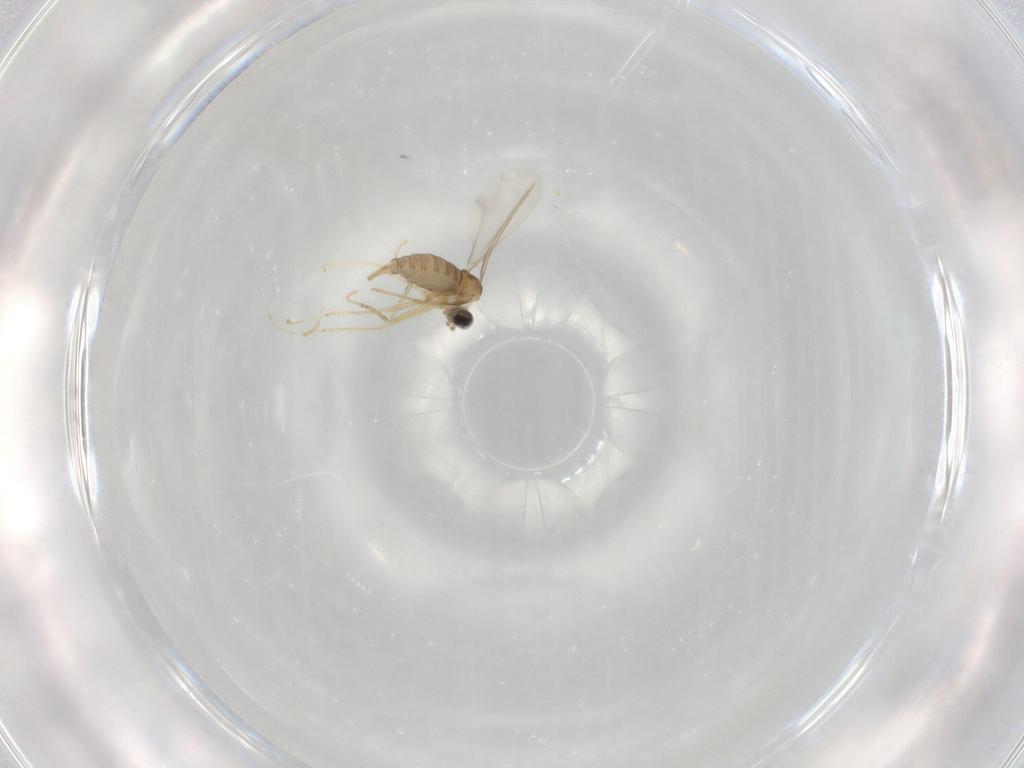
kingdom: Animalia
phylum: Arthropoda
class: Insecta
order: Diptera
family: Cecidomyiidae
